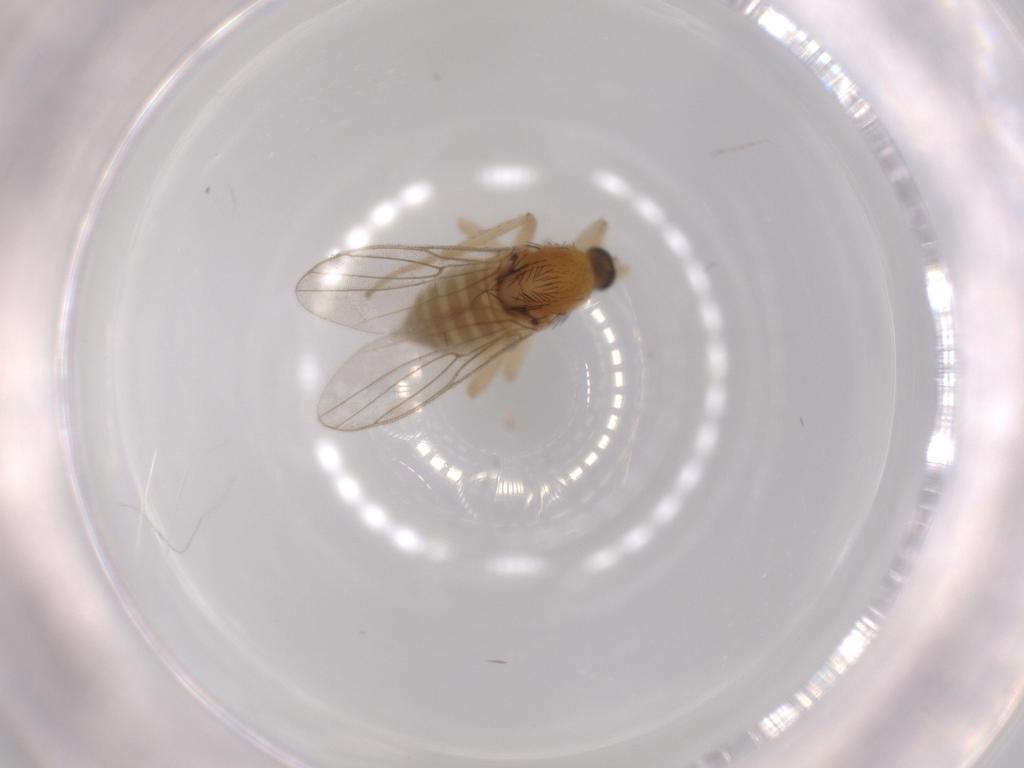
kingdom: Animalia
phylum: Arthropoda
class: Insecta
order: Diptera
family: Hybotidae
